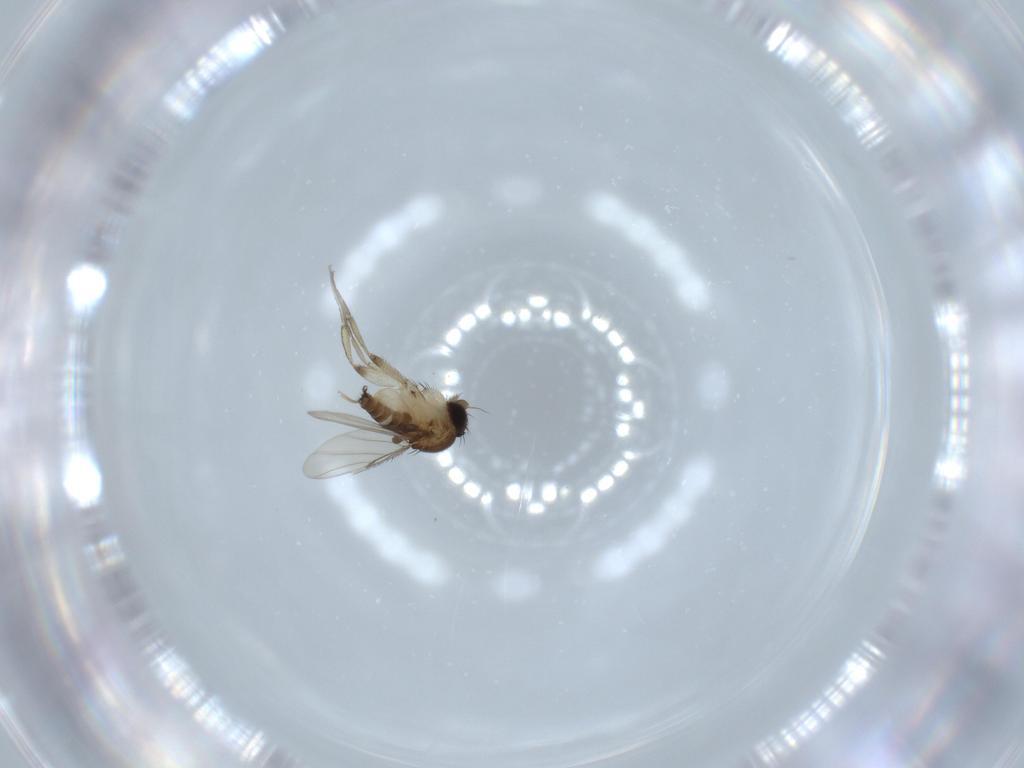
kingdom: Animalia
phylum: Arthropoda
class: Insecta
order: Diptera
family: Phoridae
